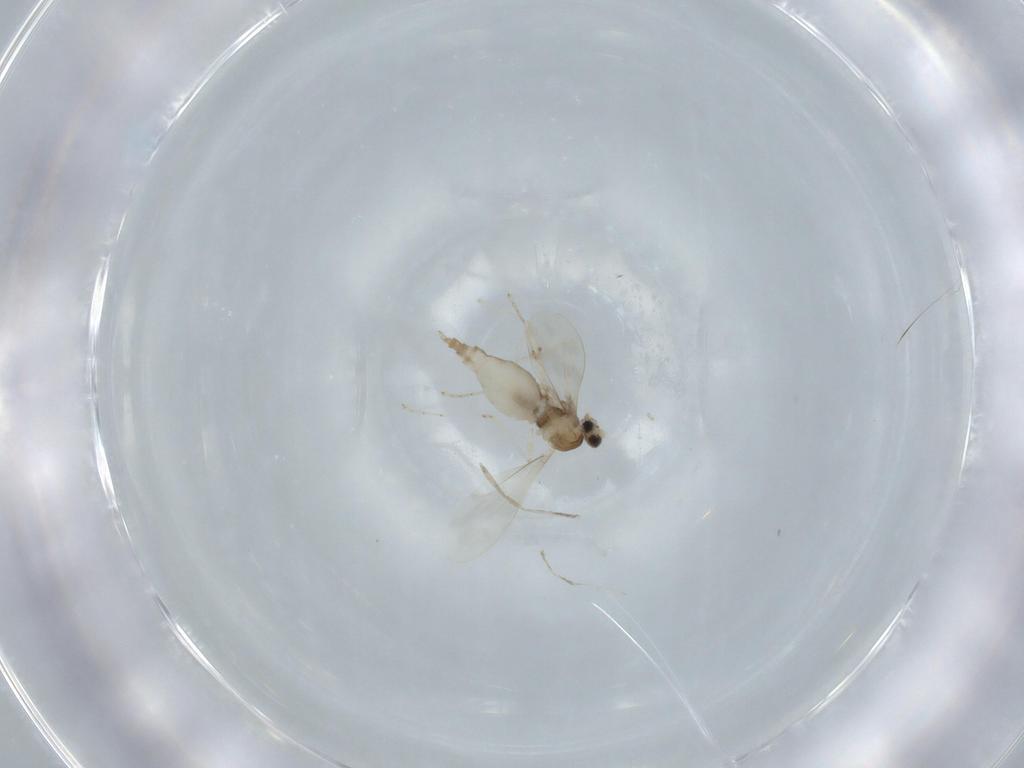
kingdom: Animalia
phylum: Arthropoda
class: Insecta
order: Diptera
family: Cecidomyiidae
